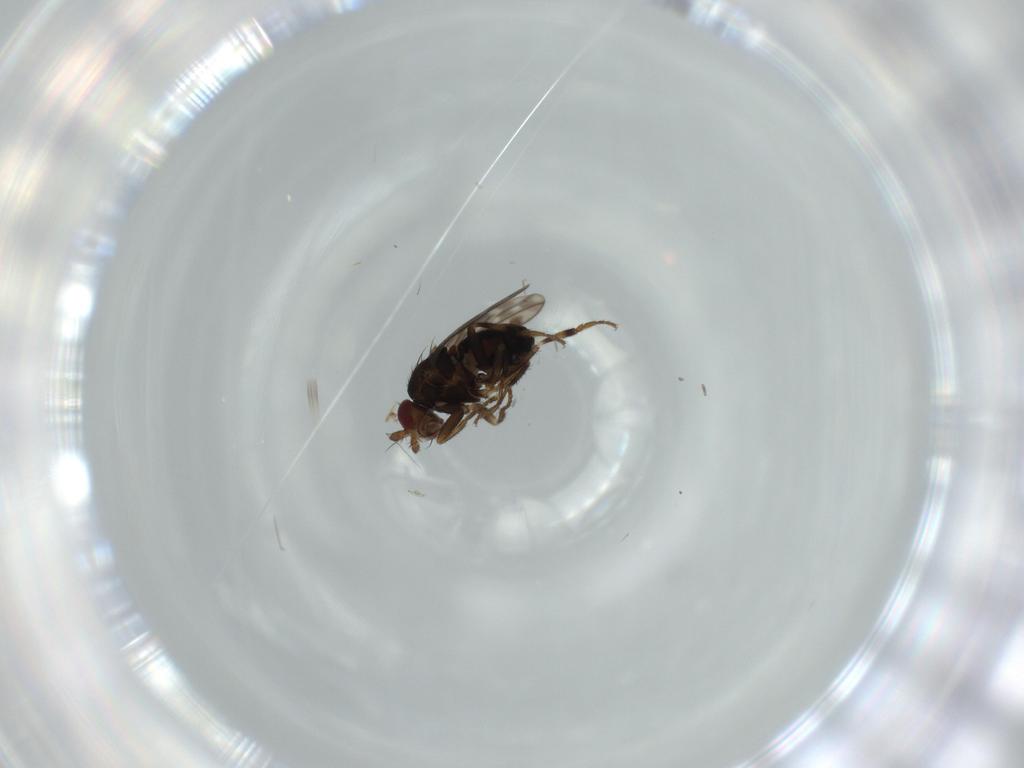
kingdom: Animalia
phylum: Arthropoda
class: Insecta
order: Diptera
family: Sphaeroceridae
